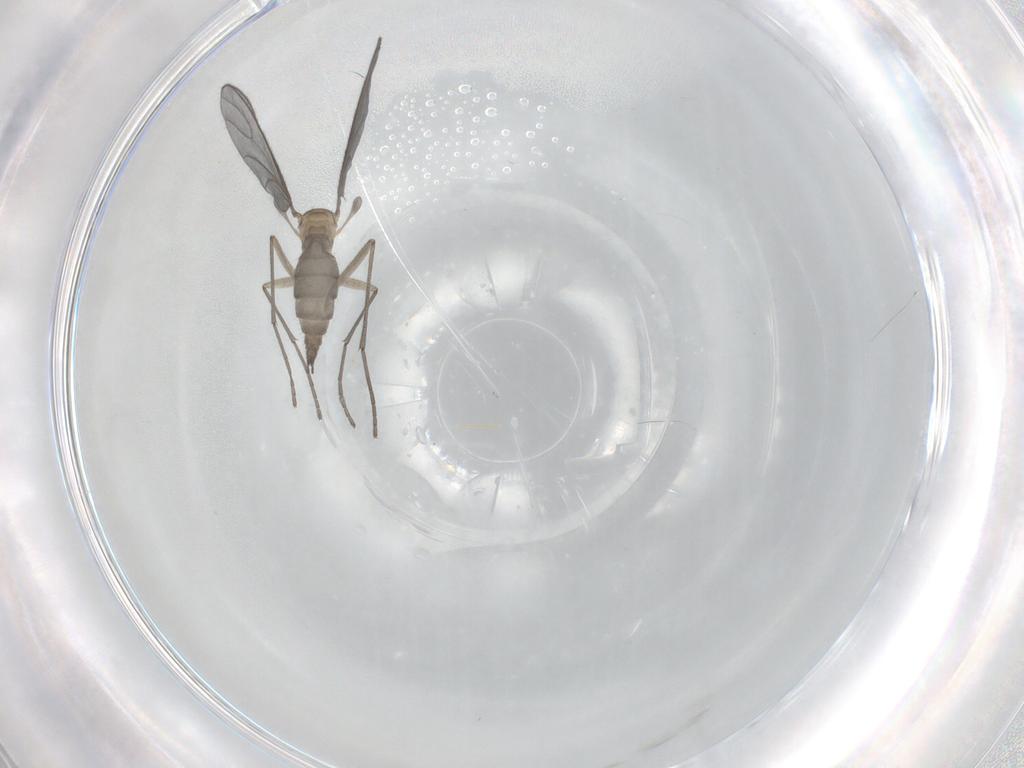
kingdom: Animalia
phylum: Arthropoda
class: Insecta
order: Diptera
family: Sciaridae
